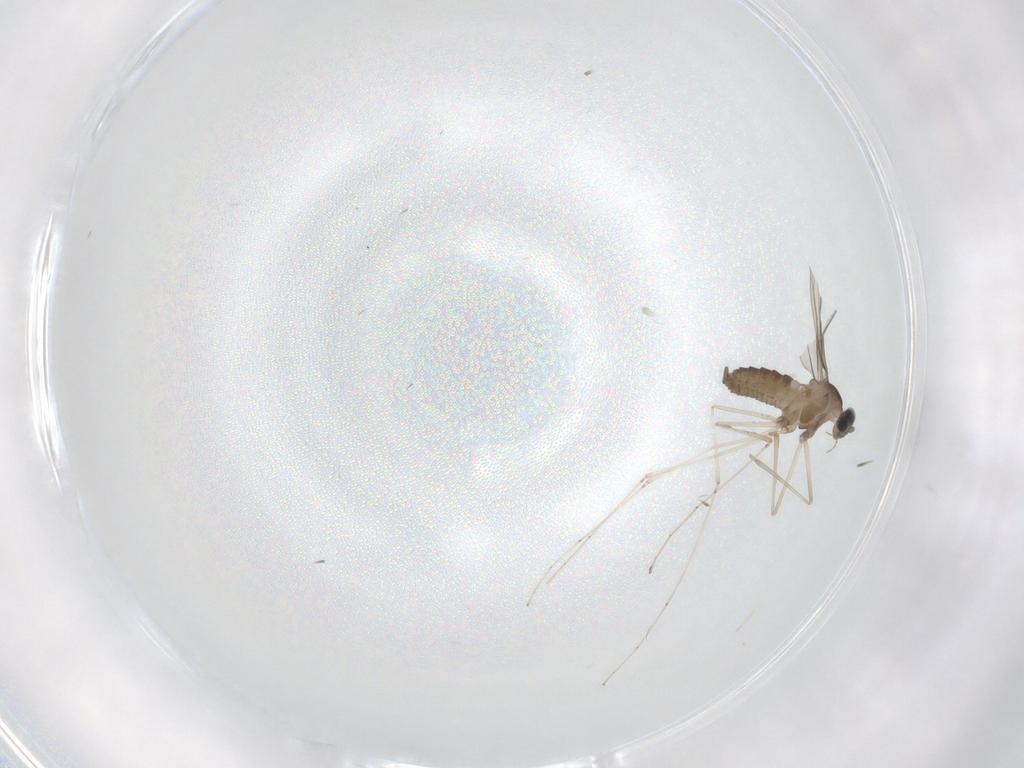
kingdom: Animalia
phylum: Arthropoda
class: Insecta
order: Diptera
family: Cecidomyiidae
